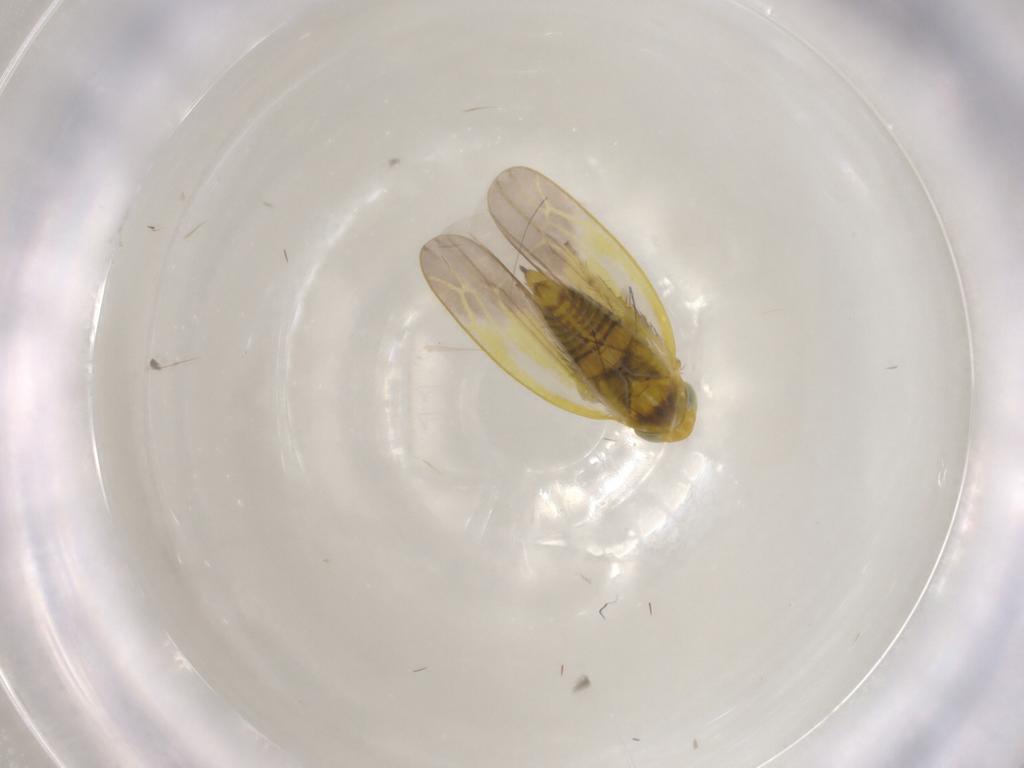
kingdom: Animalia
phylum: Arthropoda
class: Insecta
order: Hemiptera
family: Cicadellidae
